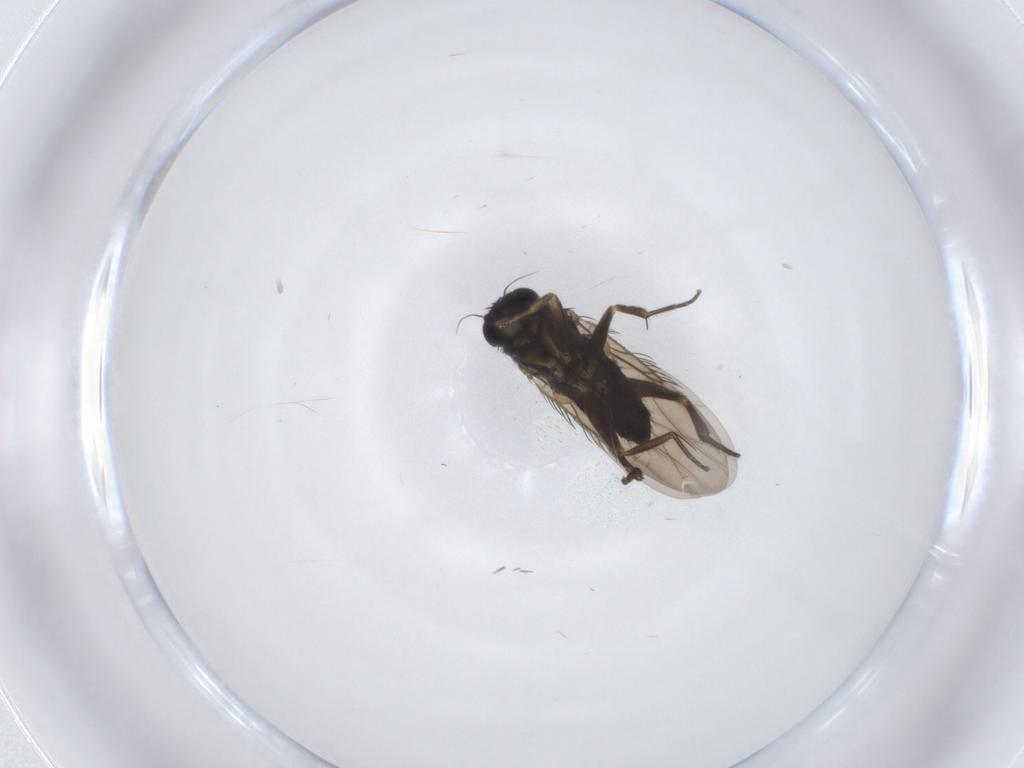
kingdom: Animalia
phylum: Arthropoda
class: Insecta
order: Diptera
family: Phoridae
